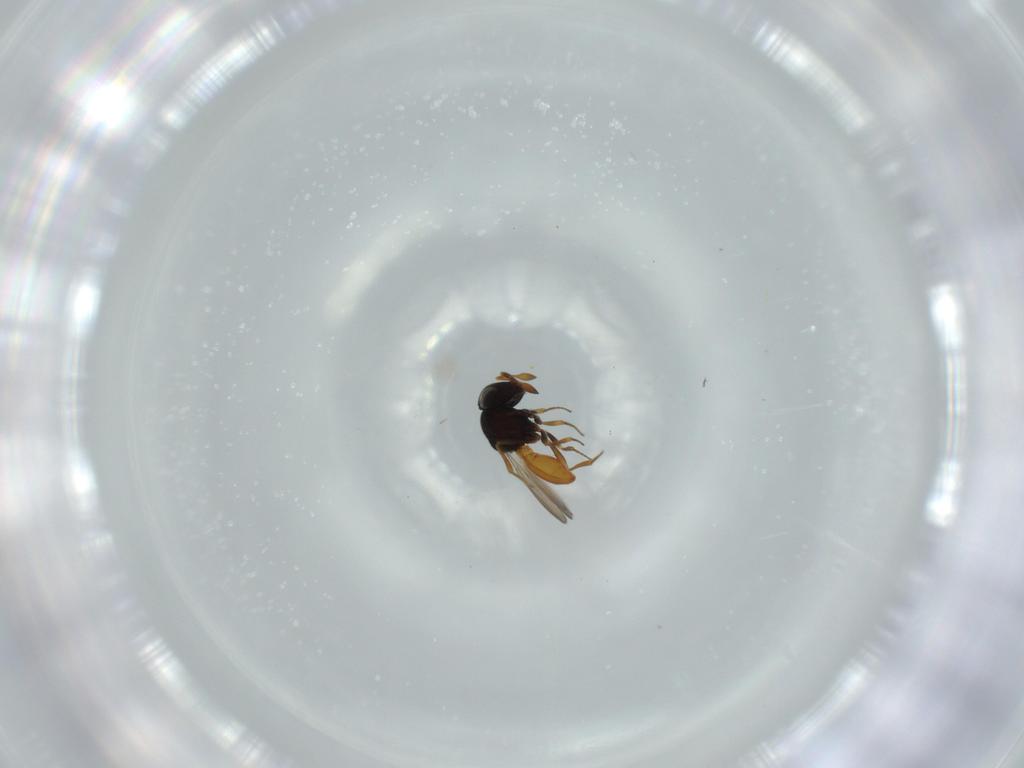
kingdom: Animalia
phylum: Arthropoda
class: Insecta
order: Hymenoptera
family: Scelionidae
